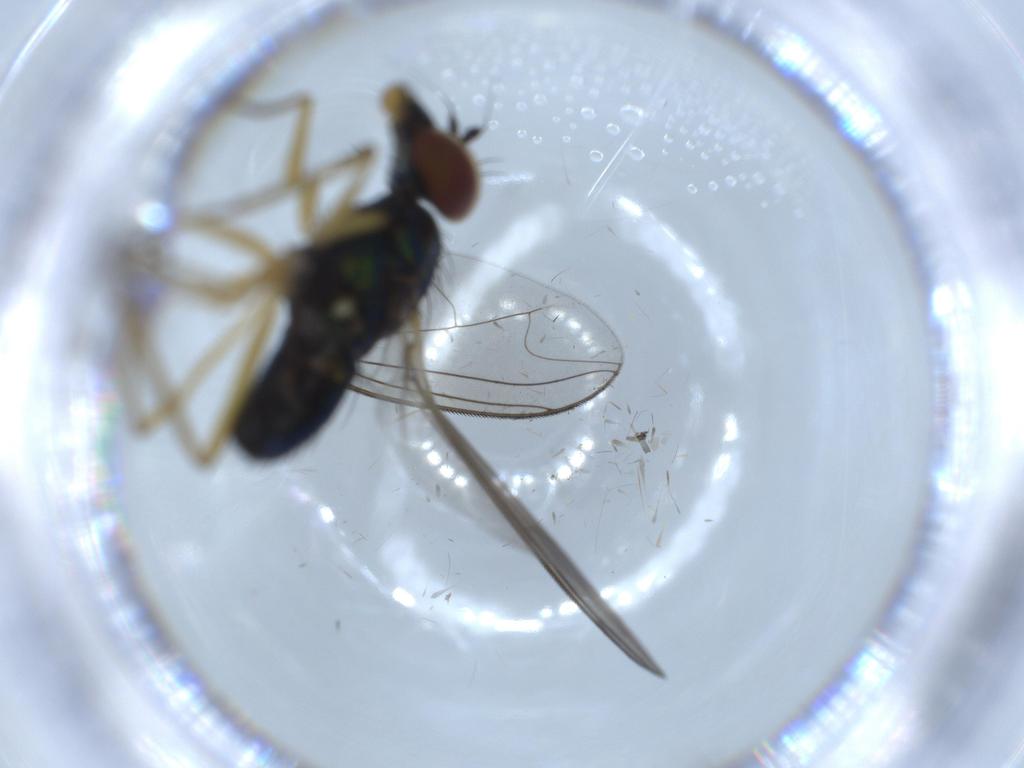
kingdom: Animalia
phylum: Arthropoda
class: Insecta
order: Diptera
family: Dolichopodidae
